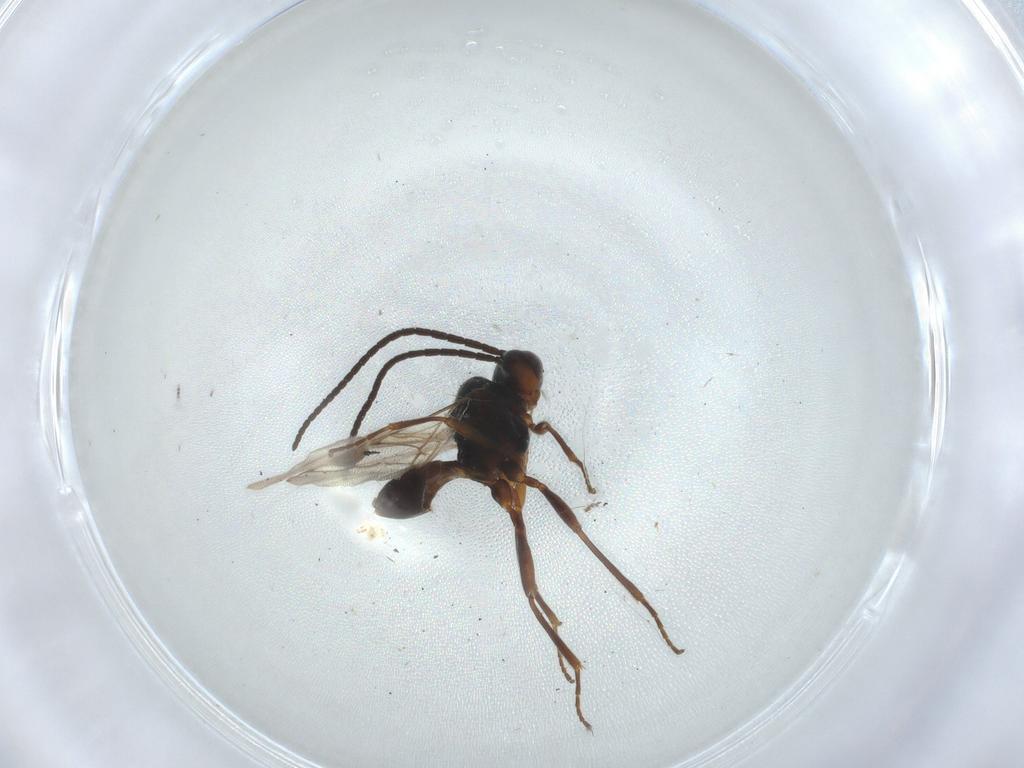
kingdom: Animalia
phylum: Arthropoda
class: Insecta
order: Hymenoptera
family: Braconidae
